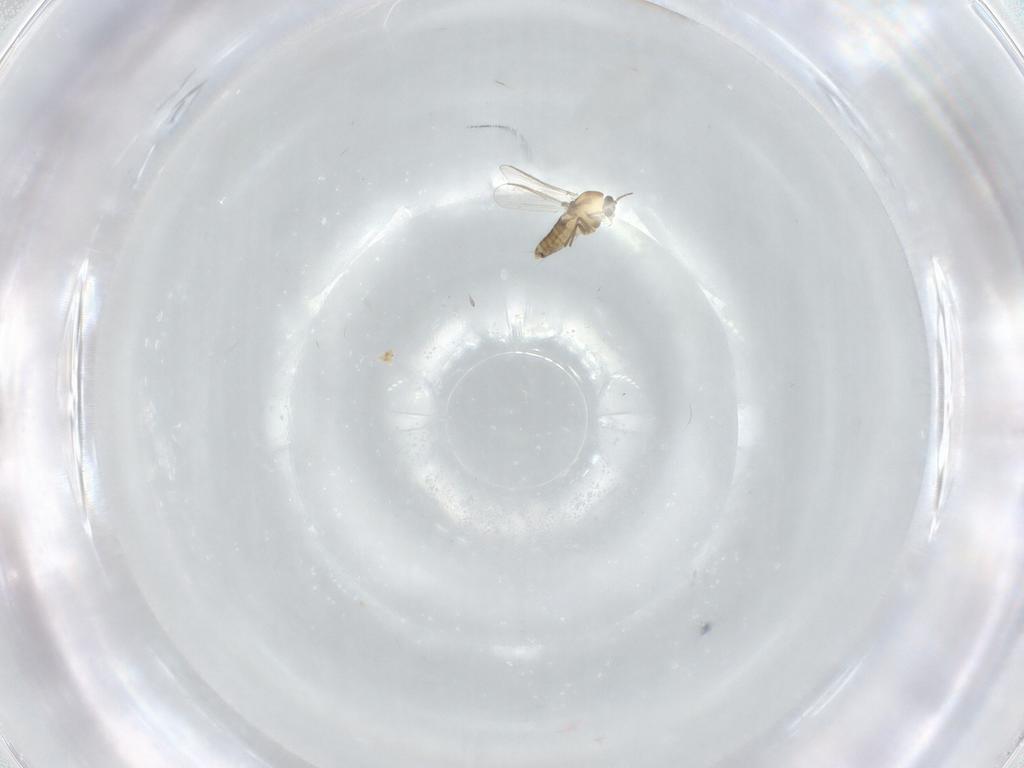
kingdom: Animalia
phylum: Arthropoda
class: Insecta
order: Diptera
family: Chironomidae
